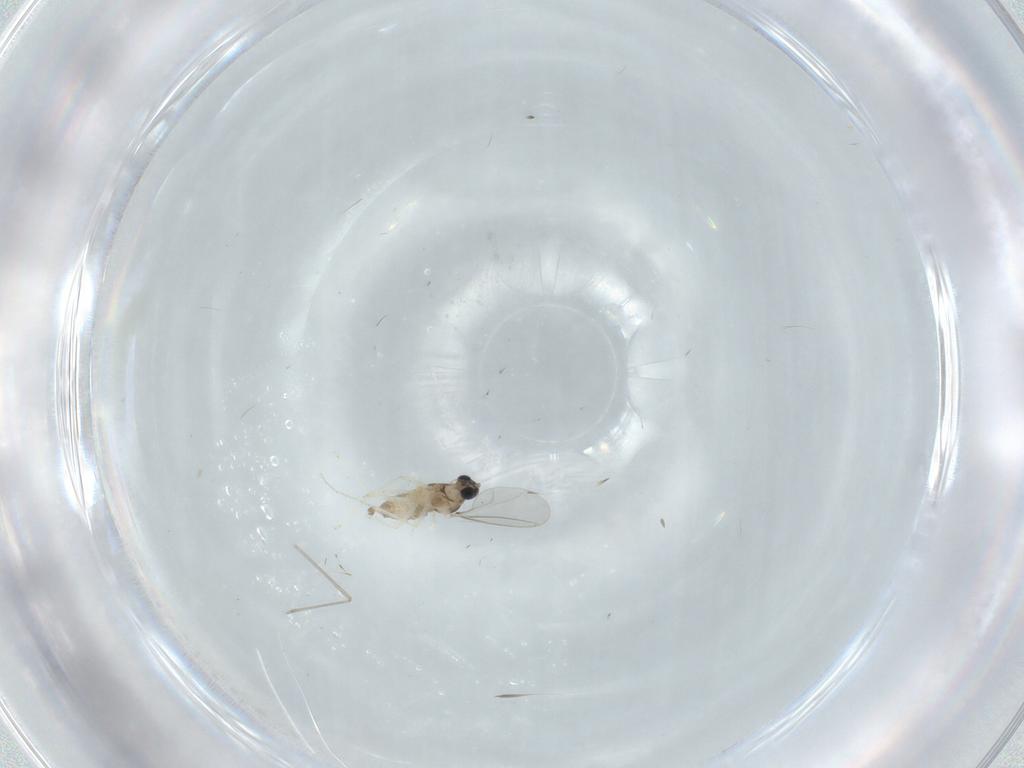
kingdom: Animalia
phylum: Arthropoda
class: Insecta
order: Diptera
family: Cecidomyiidae
